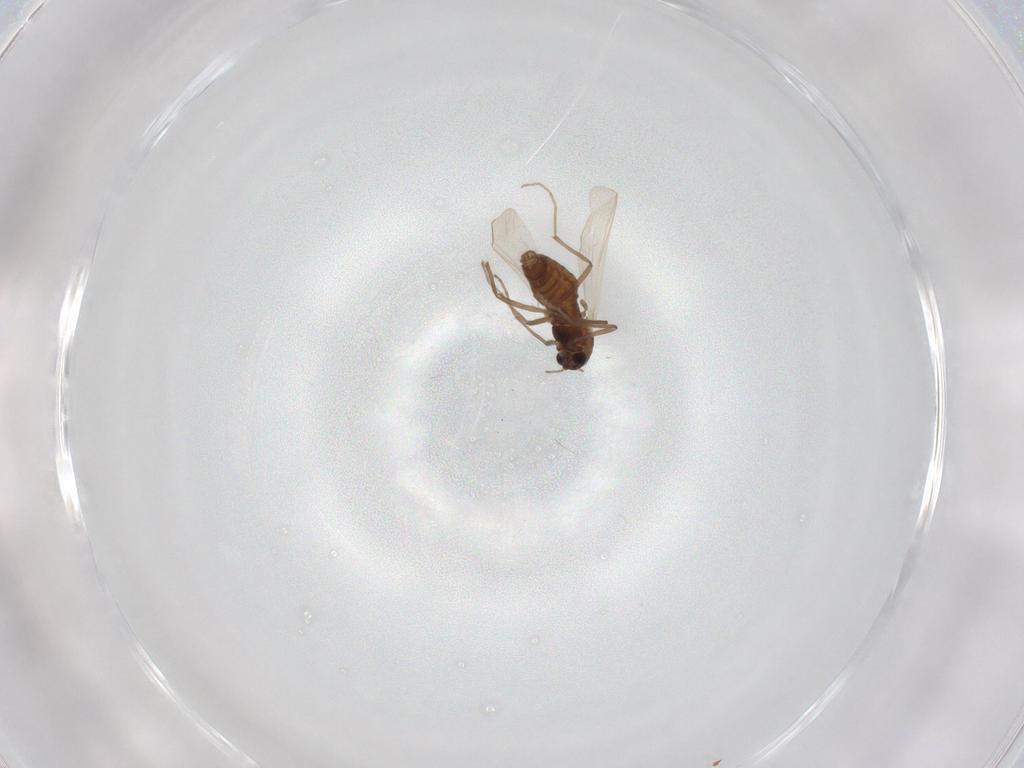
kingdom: Animalia
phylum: Arthropoda
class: Insecta
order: Diptera
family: Chironomidae
